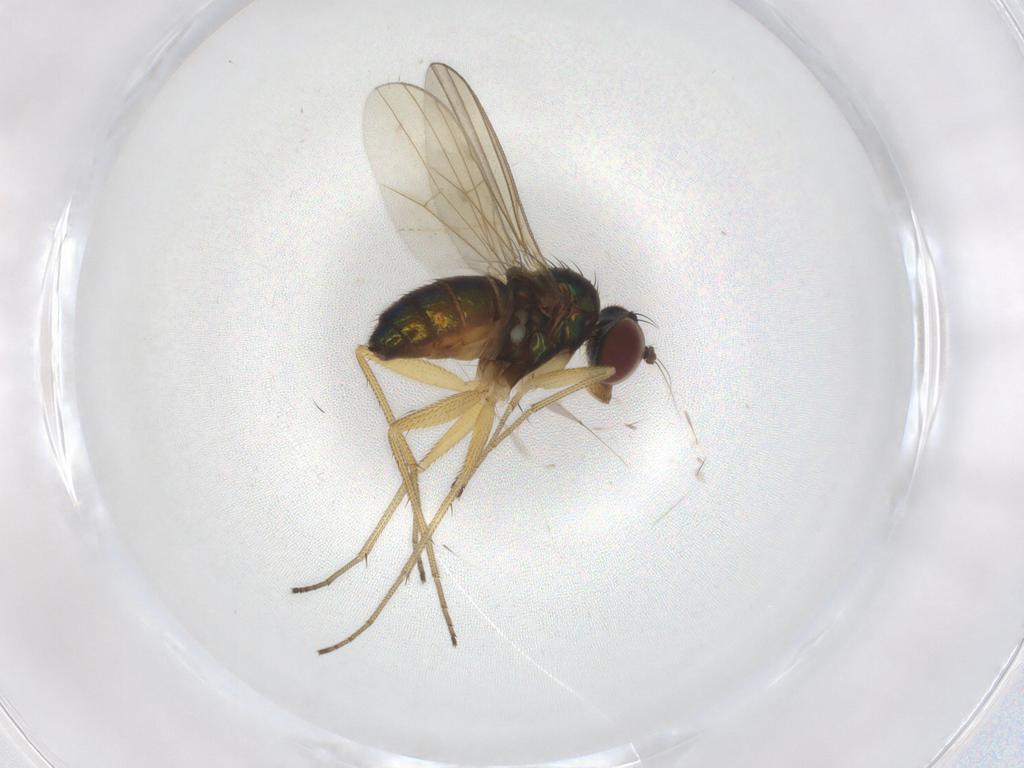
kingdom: Animalia
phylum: Arthropoda
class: Insecta
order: Diptera
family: Dolichopodidae
